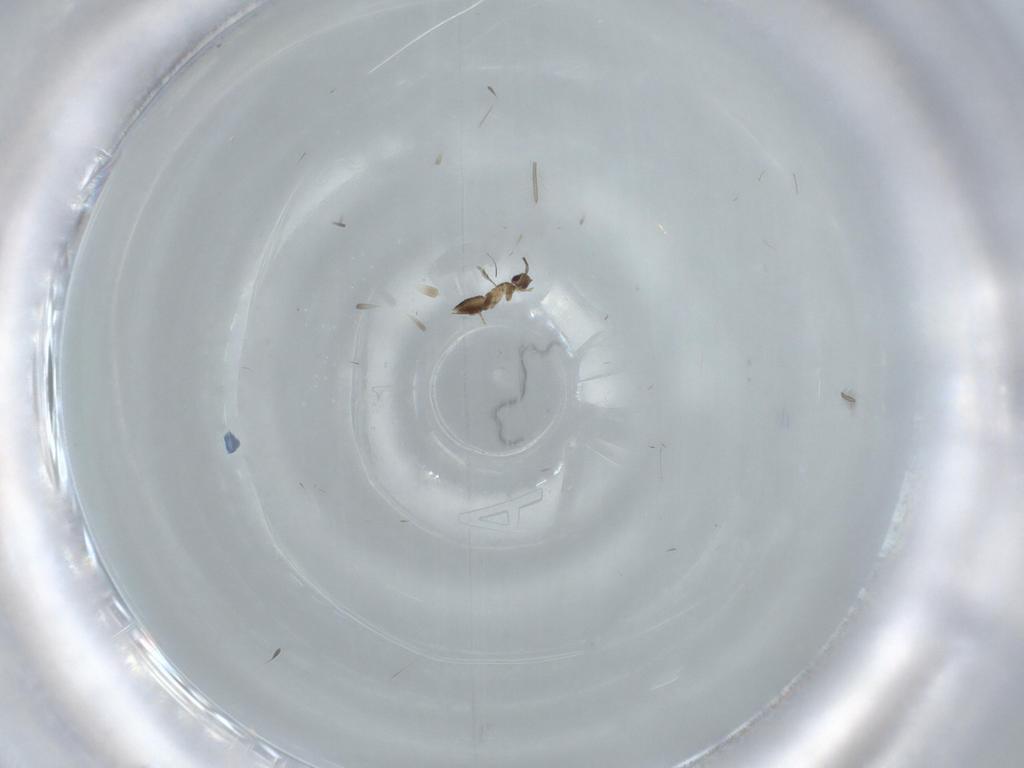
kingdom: Animalia
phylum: Arthropoda
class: Insecta
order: Hymenoptera
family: Mymaridae
